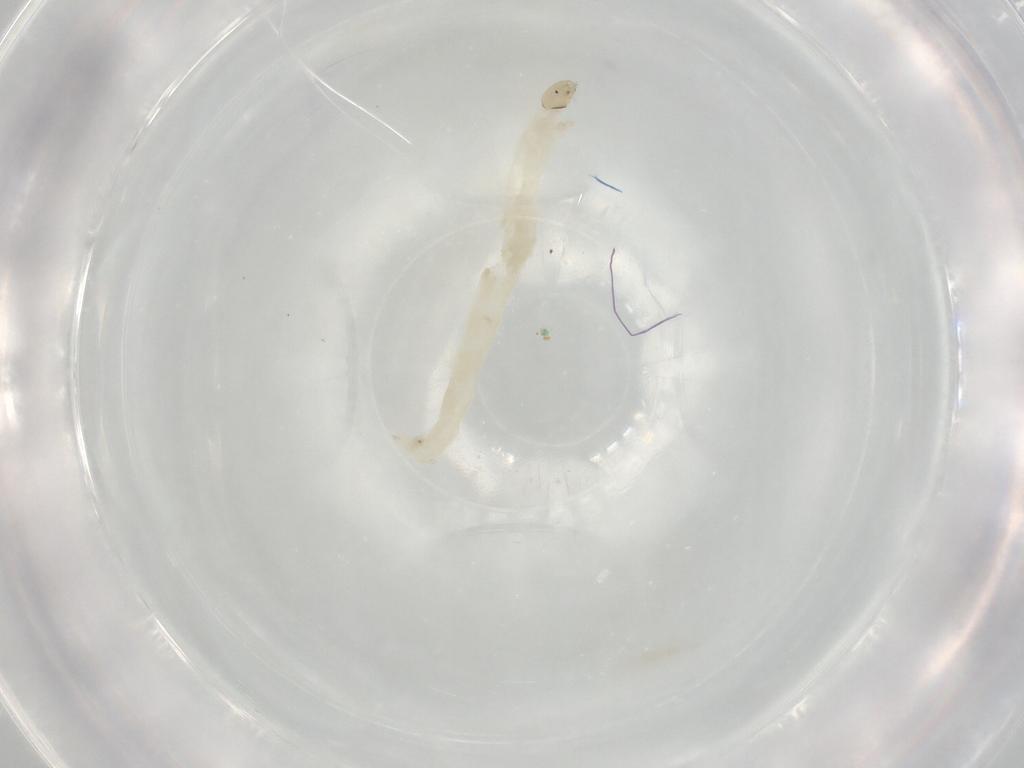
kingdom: Animalia
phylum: Arthropoda
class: Insecta
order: Diptera
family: Chironomidae
